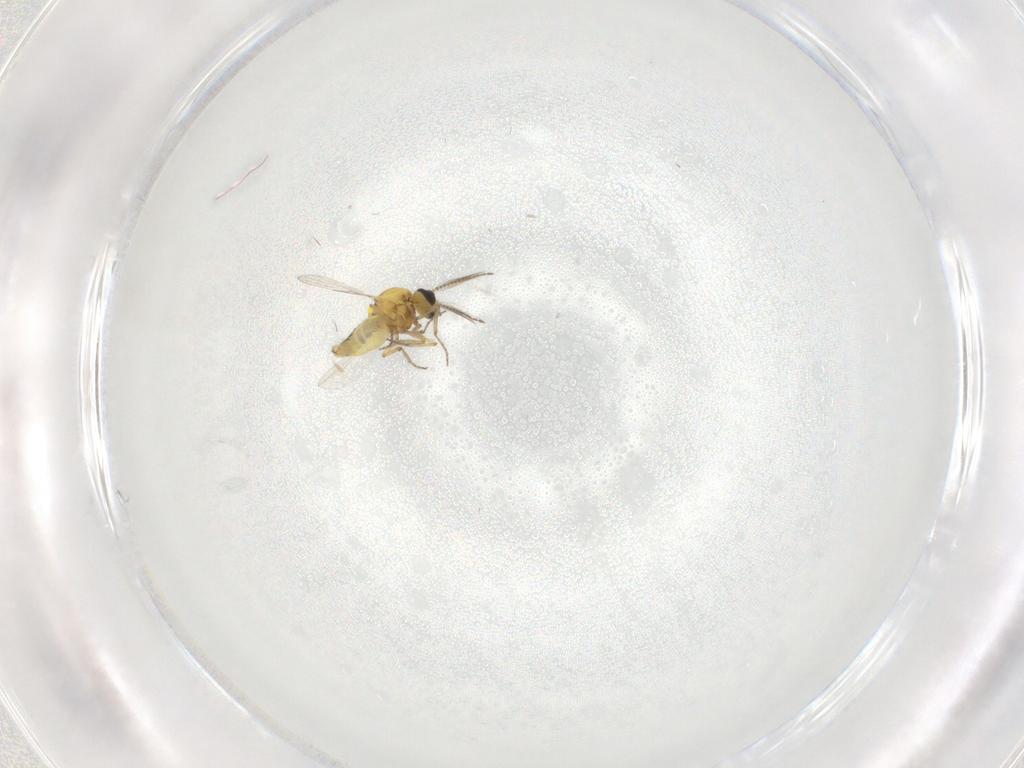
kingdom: Animalia
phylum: Arthropoda
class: Insecta
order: Diptera
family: Ceratopogonidae
